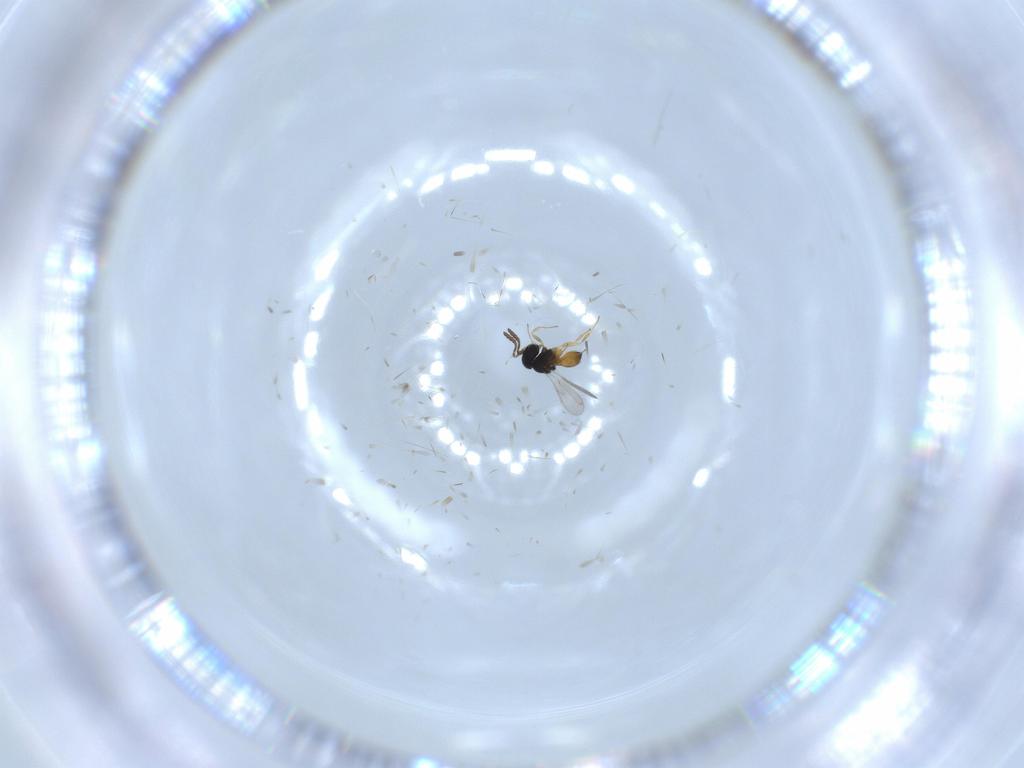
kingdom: Animalia
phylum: Arthropoda
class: Insecta
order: Hymenoptera
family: Scelionidae
